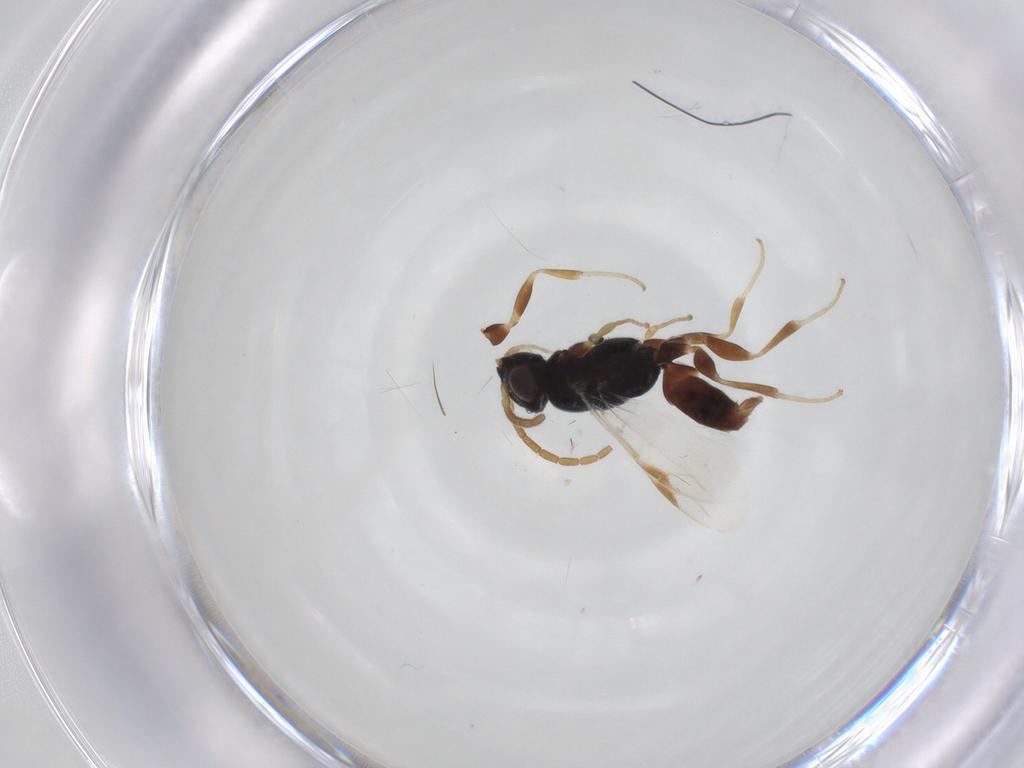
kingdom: Animalia
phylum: Arthropoda
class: Insecta
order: Hymenoptera
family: Dryinidae
